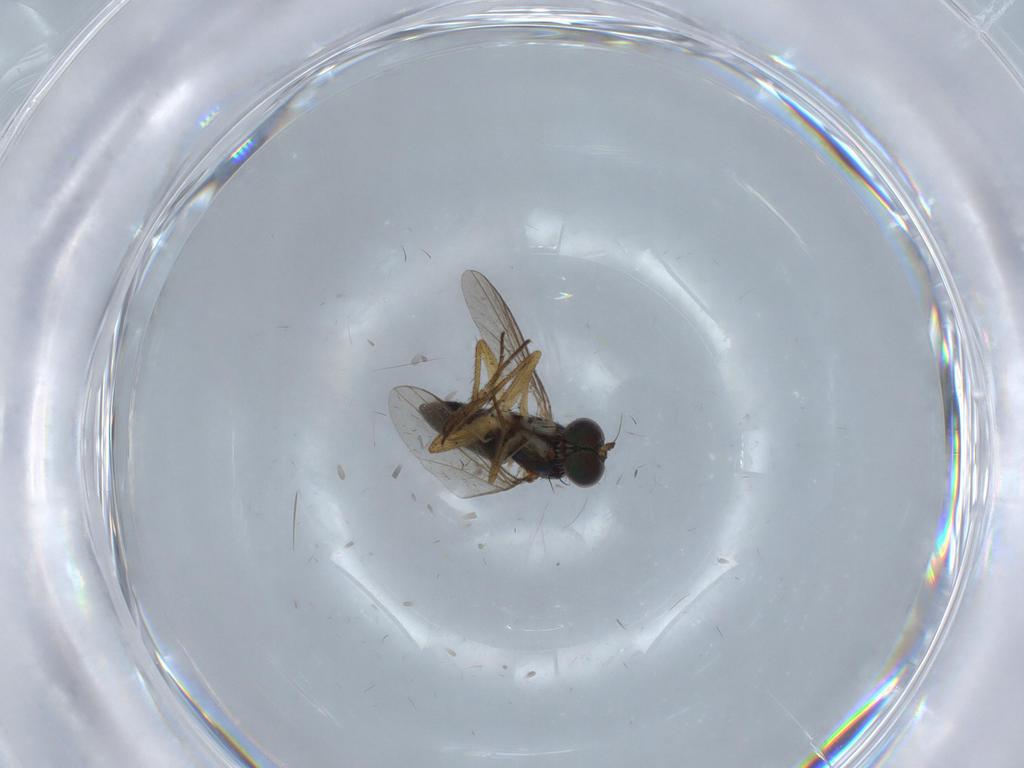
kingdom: Animalia
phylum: Arthropoda
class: Insecta
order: Diptera
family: Cecidomyiidae
